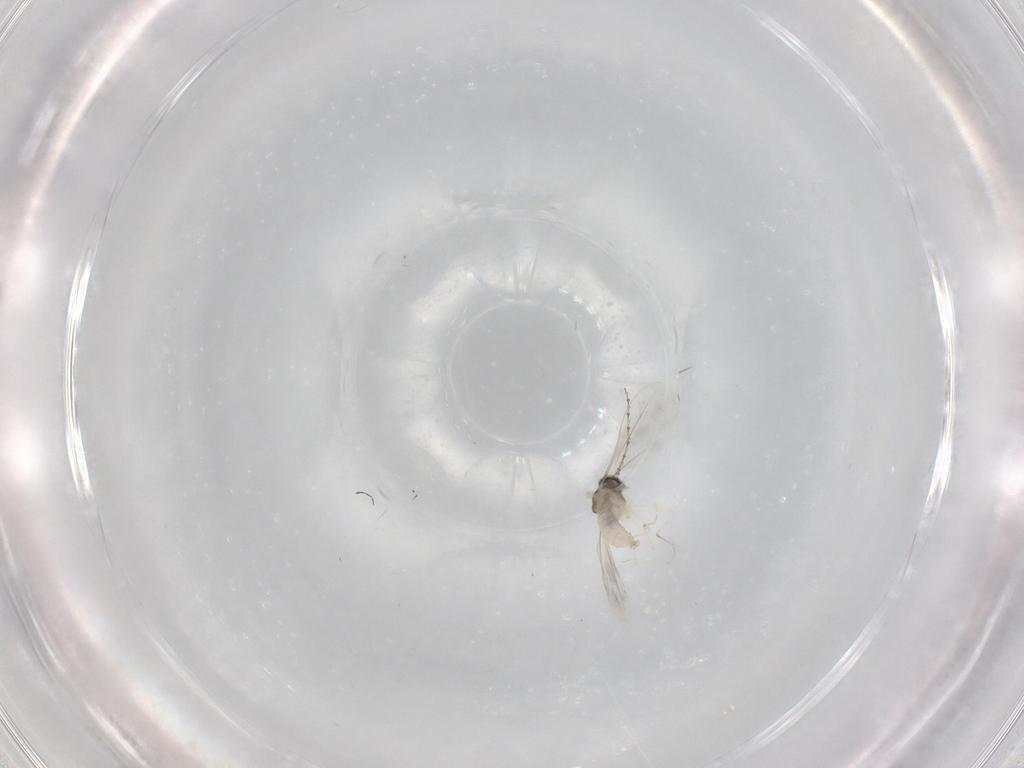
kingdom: Animalia
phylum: Arthropoda
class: Insecta
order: Diptera
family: Cecidomyiidae
